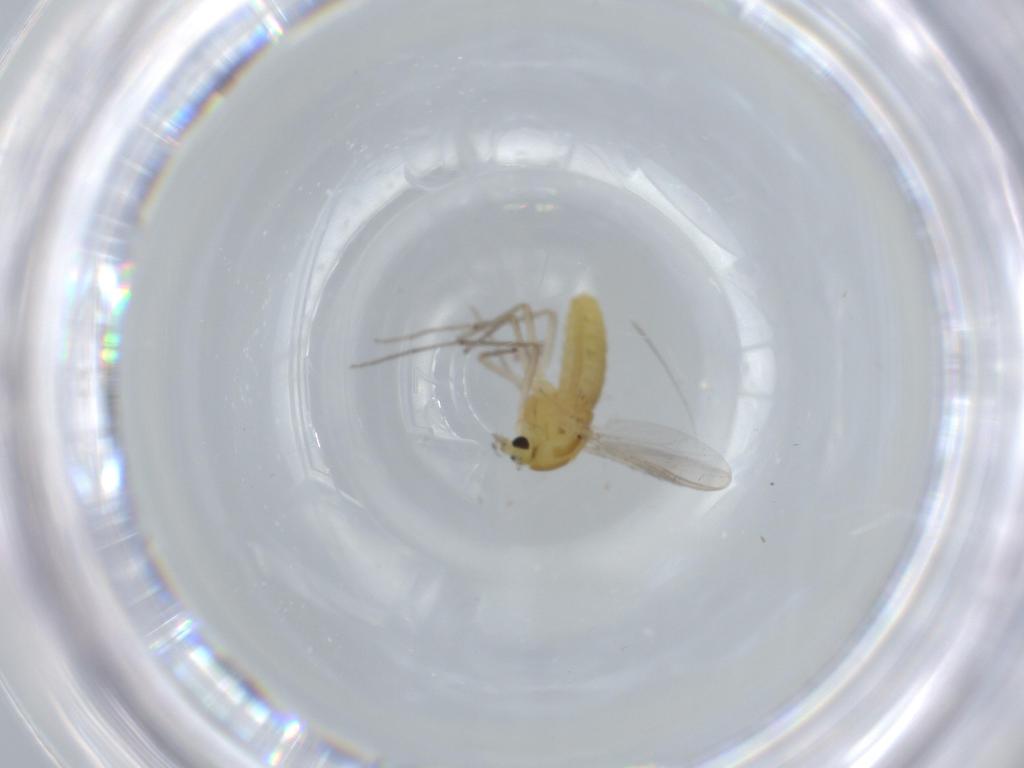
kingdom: Animalia
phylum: Arthropoda
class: Insecta
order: Diptera
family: Chironomidae
